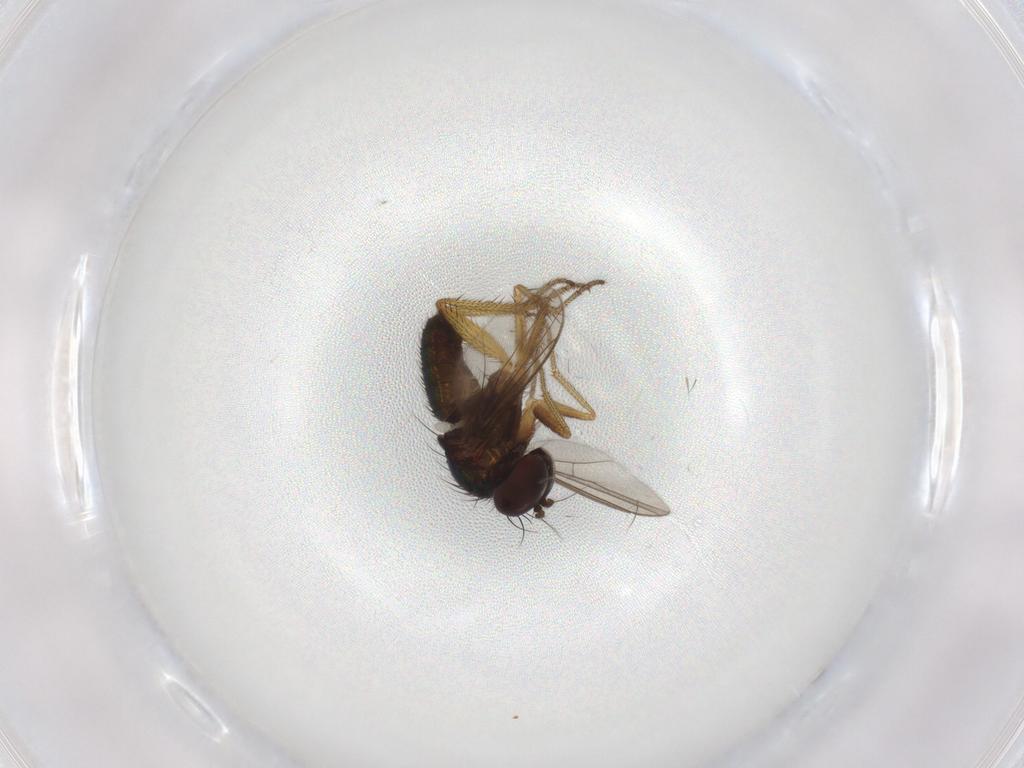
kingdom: Animalia
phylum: Arthropoda
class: Insecta
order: Diptera
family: Dolichopodidae
